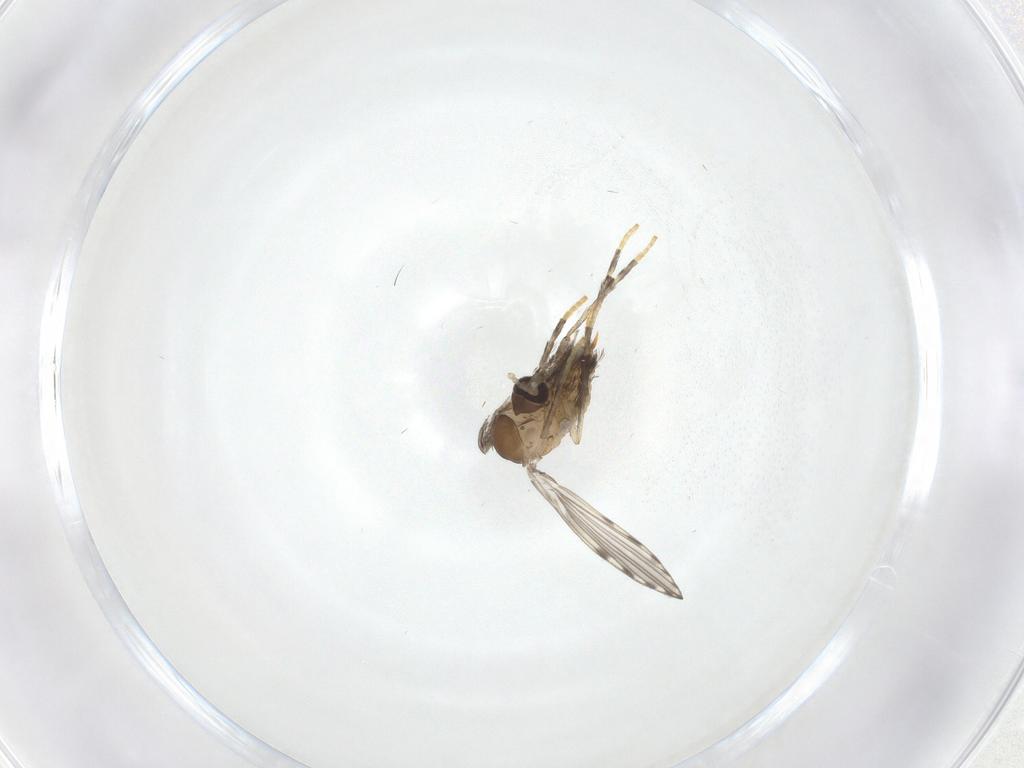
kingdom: Animalia
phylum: Arthropoda
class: Insecta
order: Diptera
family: Psychodidae
